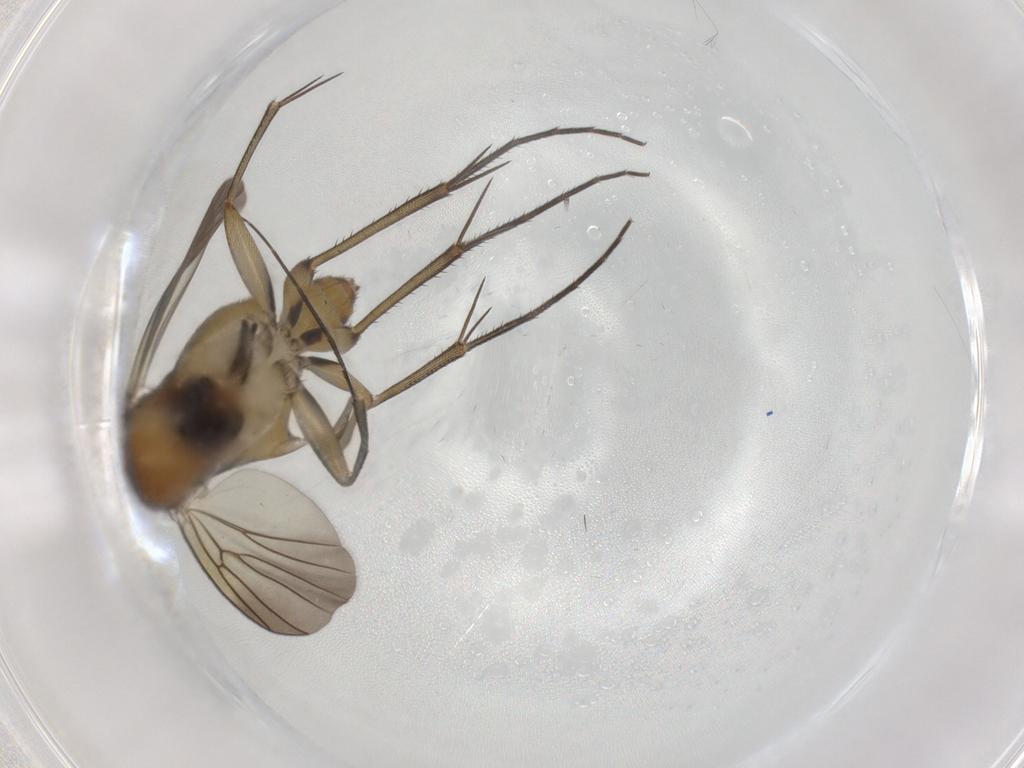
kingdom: Animalia
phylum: Arthropoda
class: Insecta
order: Diptera
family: Mycetophilidae
